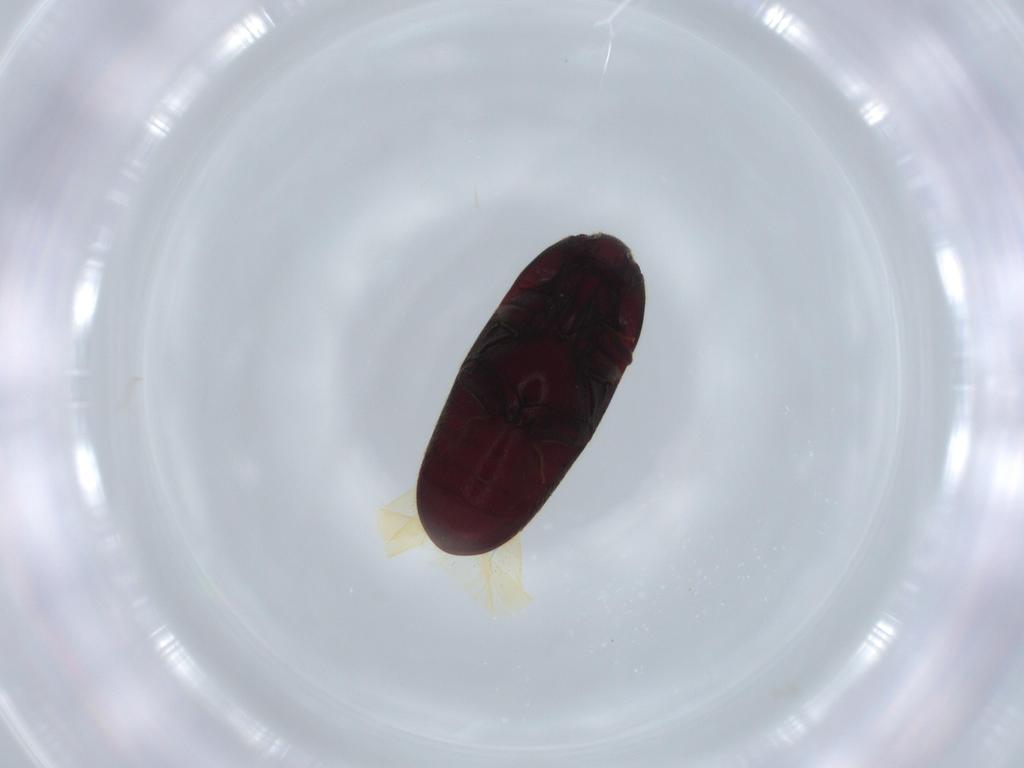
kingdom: Animalia
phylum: Arthropoda
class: Insecta
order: Coleoptera
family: Throscidae
